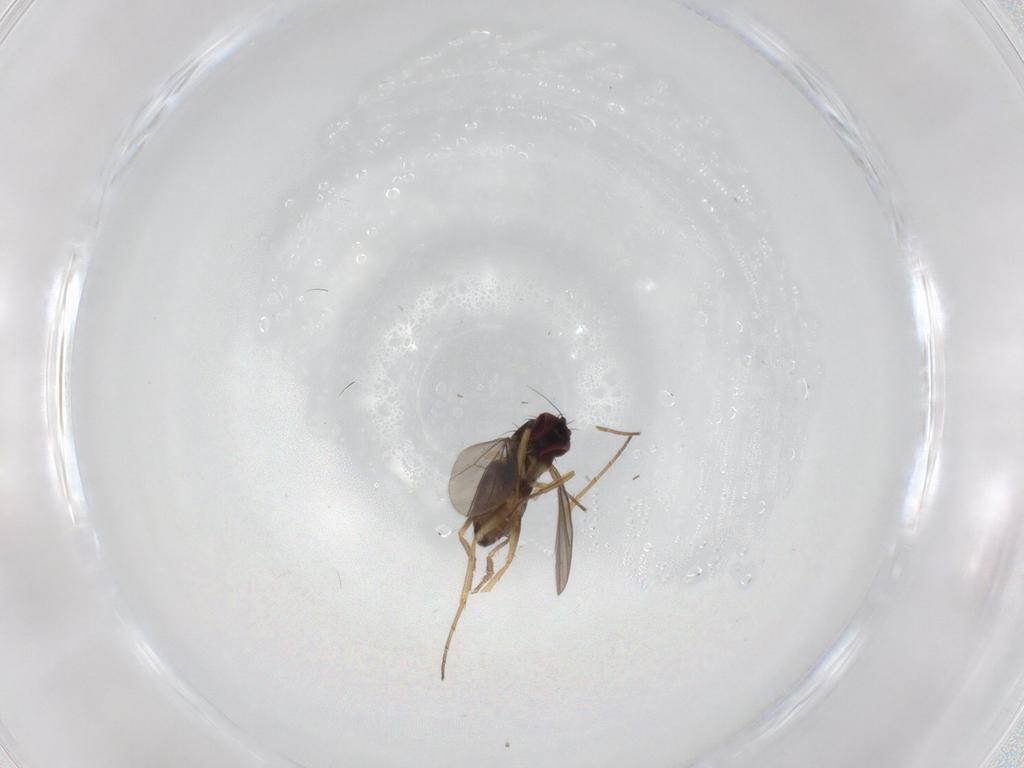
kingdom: Animalia
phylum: Arthropoda
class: Insecta
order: Diptera
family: Dolichopodidae
